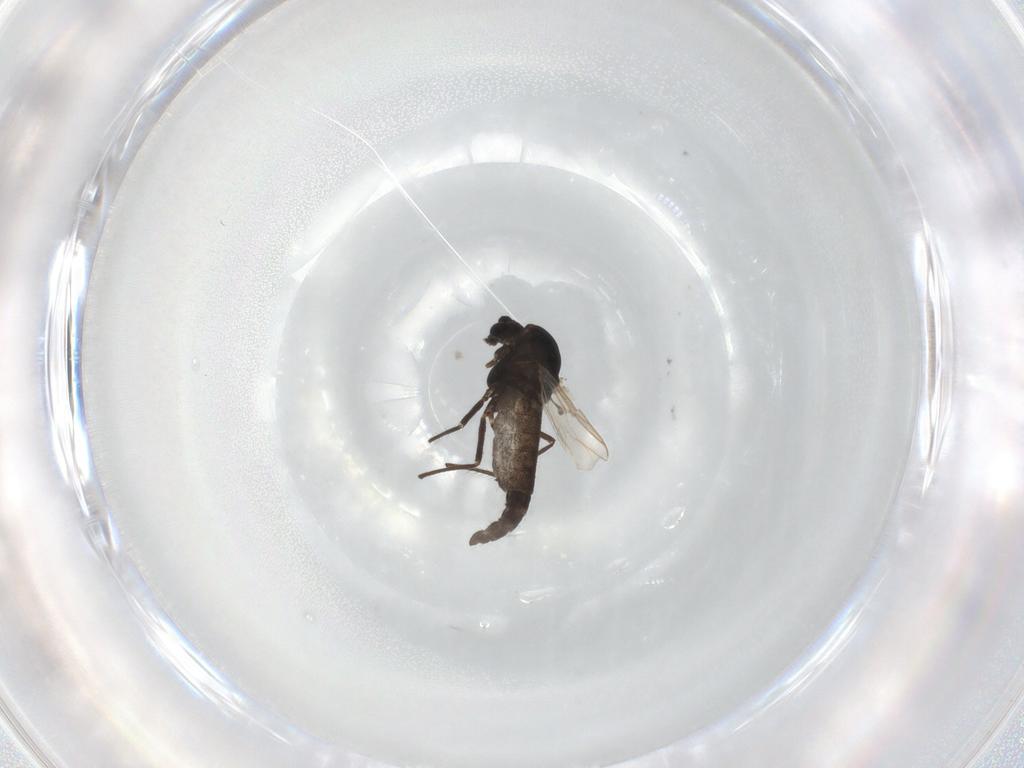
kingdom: Animalia
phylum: Arthropoda
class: Insecta
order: Diptera
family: Chironomidae
